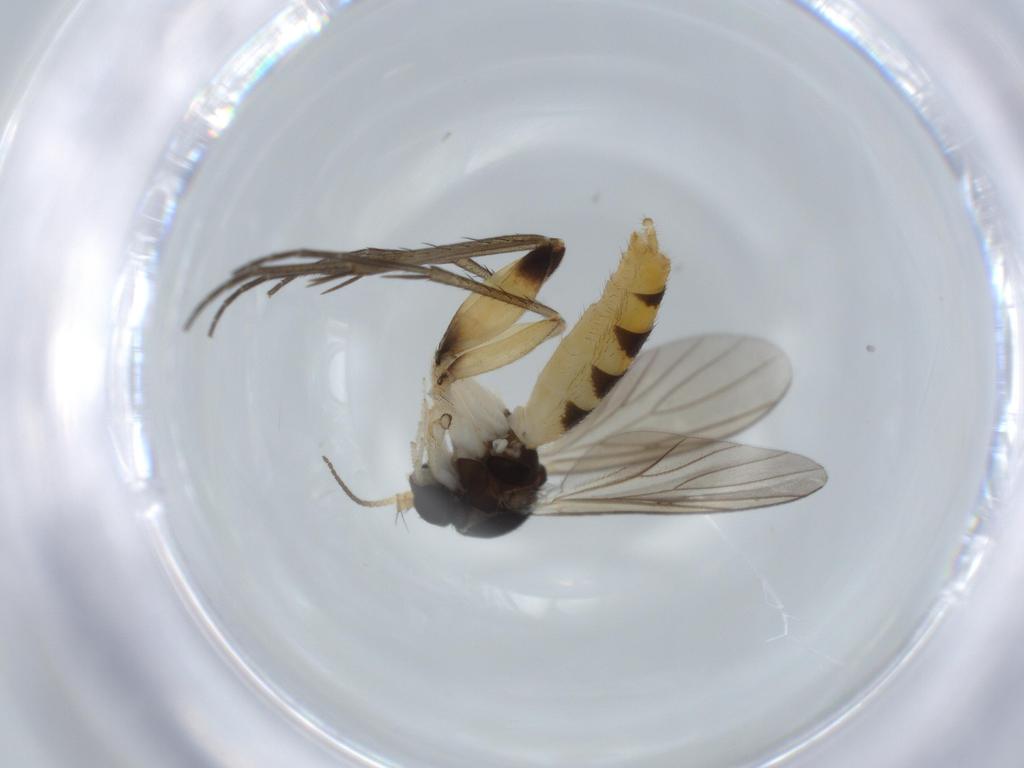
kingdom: Animalia
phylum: Arthropoda
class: Insecta
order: Diptera
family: Mycetophilidae
